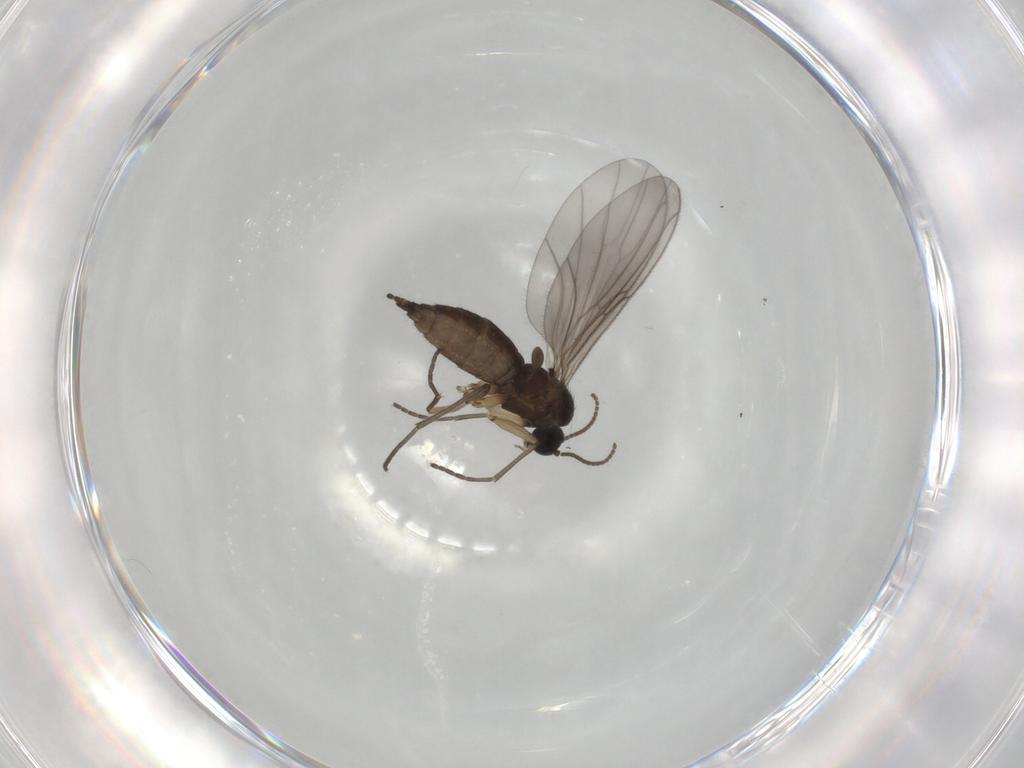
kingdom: Animalia
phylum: Arthropoda
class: Insecta
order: Diptera
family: Sciaridae
